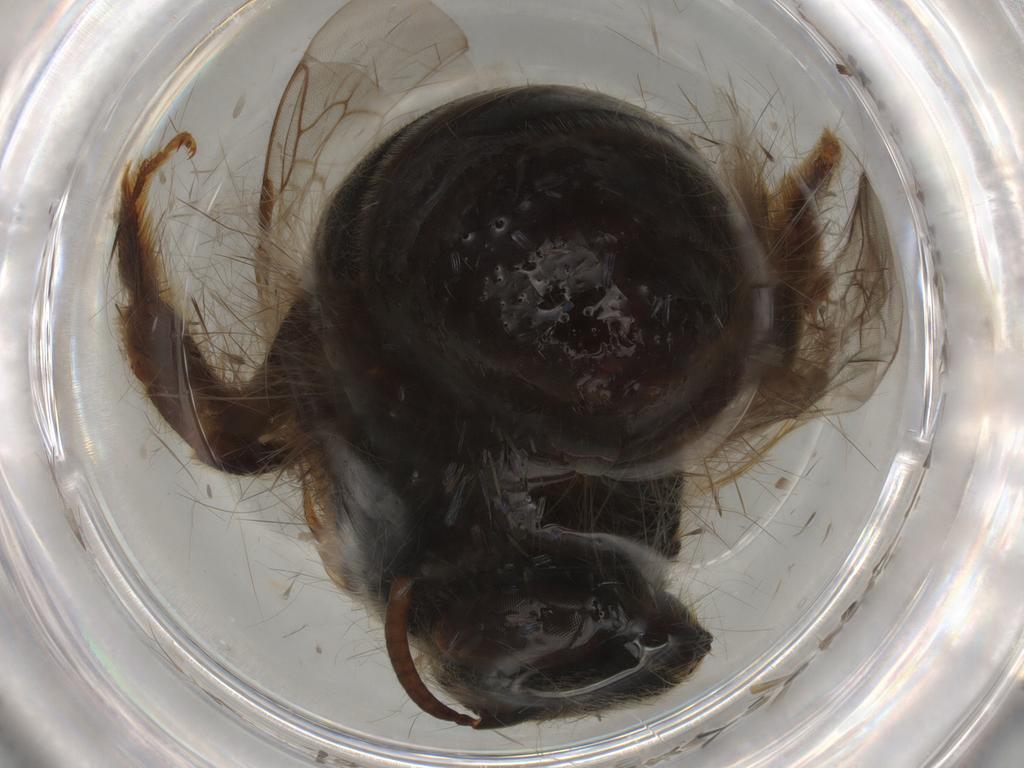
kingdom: Animalia
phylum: Arthropoda
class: Insecta
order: Hymenoptera
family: Halictidae
